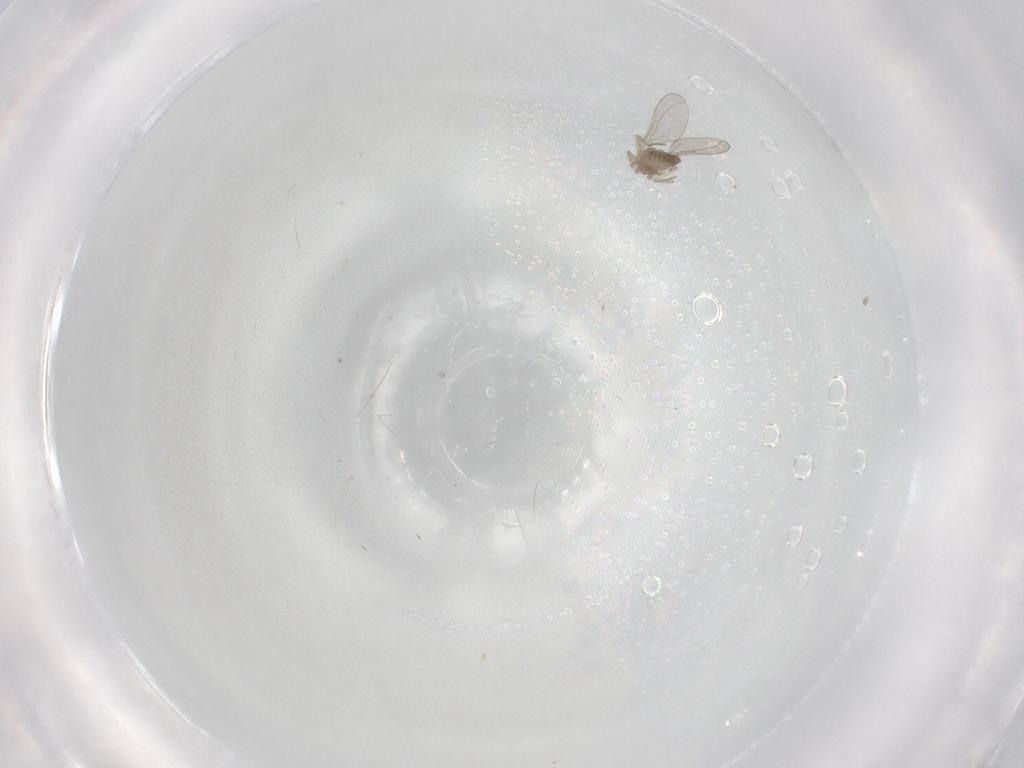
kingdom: Animalia
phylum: Arthropoda
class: Insecta
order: Diptera
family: Cecidomyiidae
